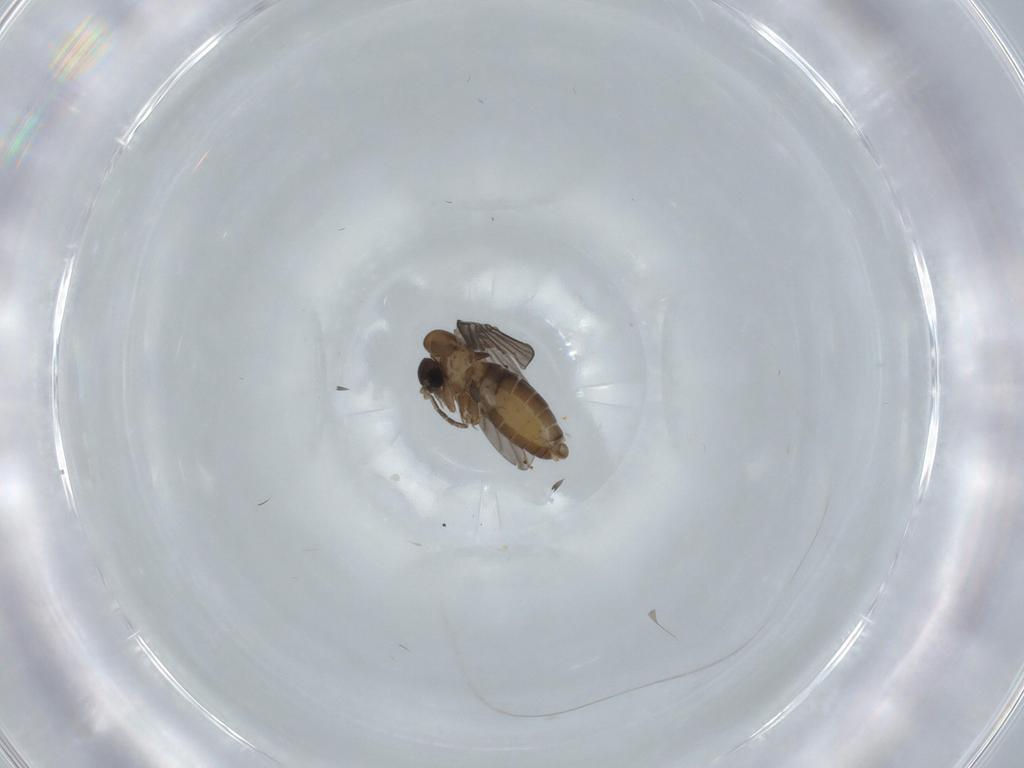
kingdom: Animalia
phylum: Arthropoda
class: Insecta
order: Diptera
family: Psychodidae
